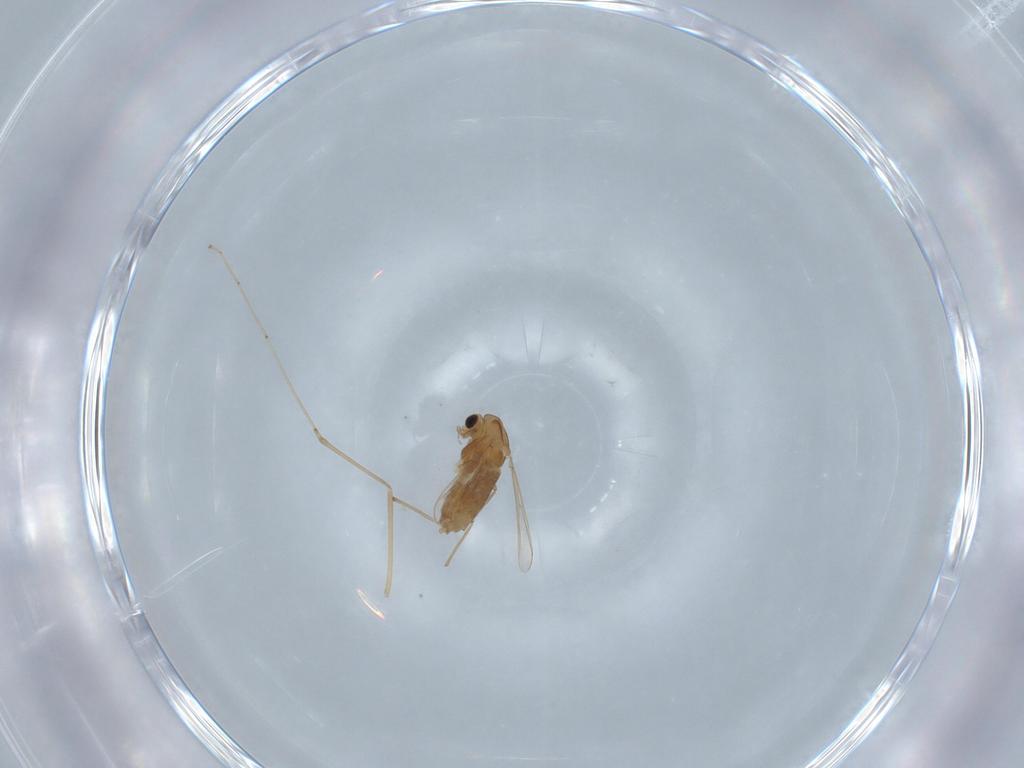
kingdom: Animalia
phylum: Arthropoda
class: Insecta
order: Diptera
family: Chironomidae
